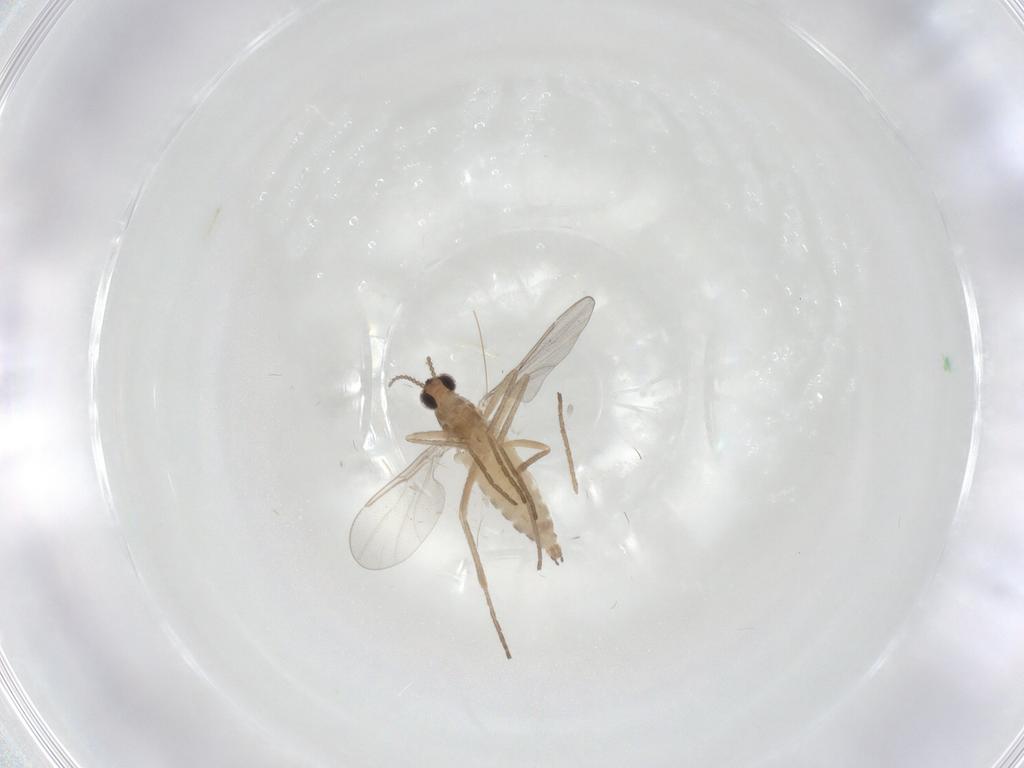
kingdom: Animalia
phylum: Arthropoda
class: Insecta
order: Diptera
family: Cecidomyiidae
